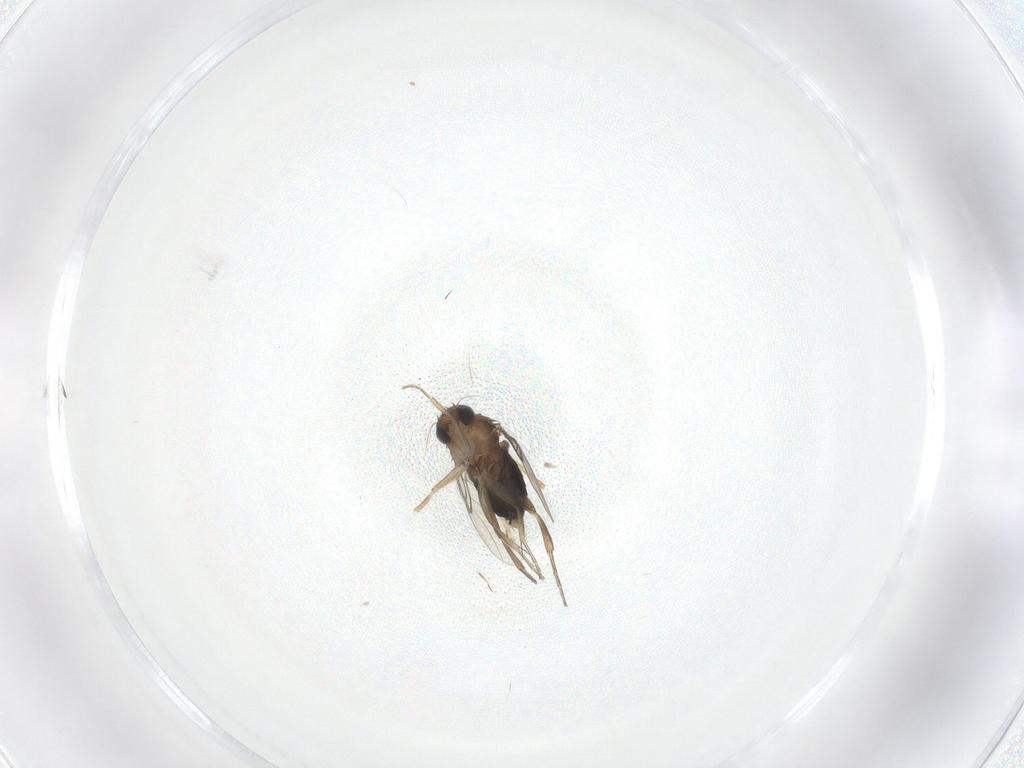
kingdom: Animalia
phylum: Arthropoda
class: Insecta
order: Diptera
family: Phoridae
